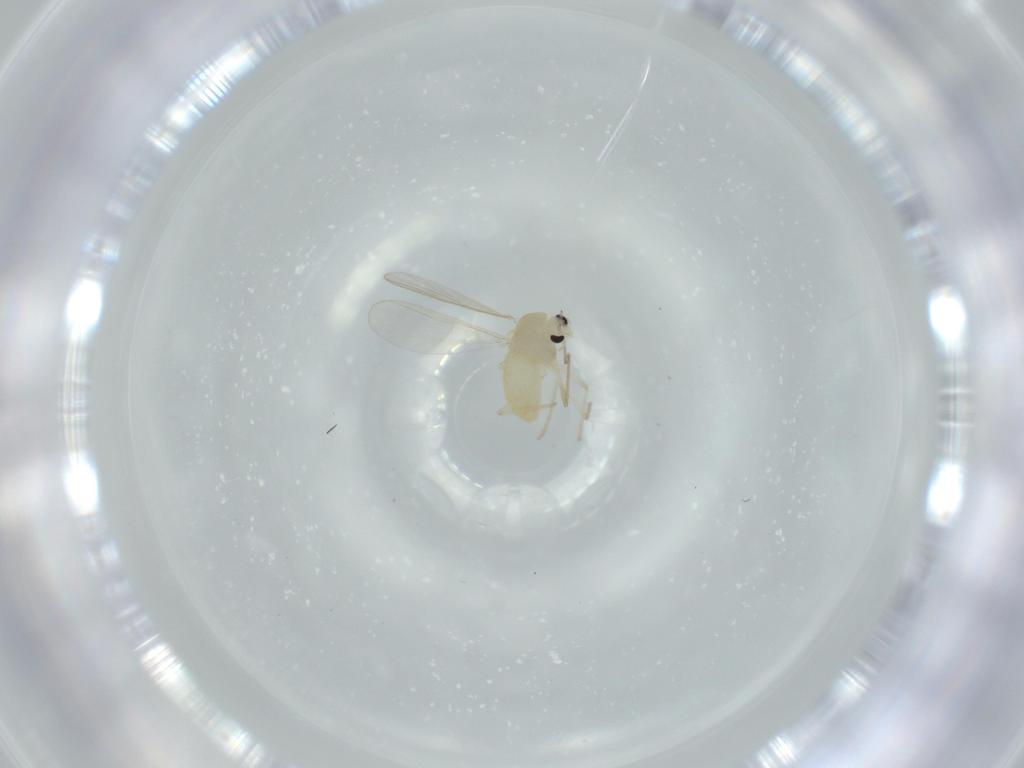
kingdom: Animalia
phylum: Arthropoda
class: Insecta
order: Diptera
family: Chironomidae
